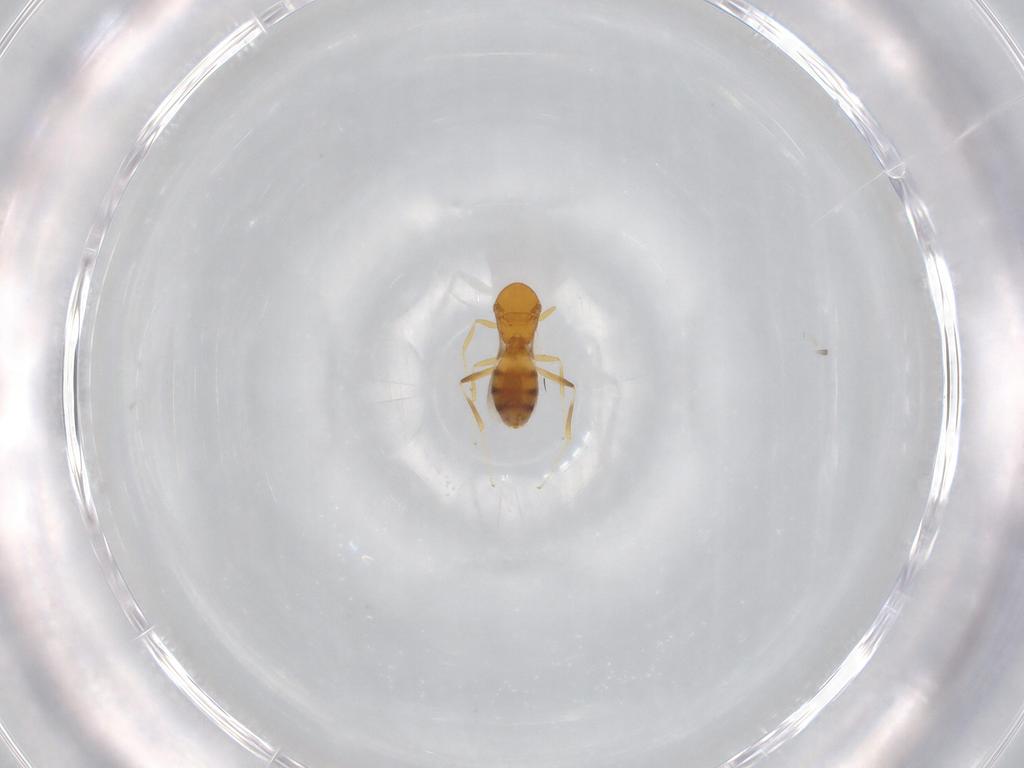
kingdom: Animalia
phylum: Arthropoda
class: Insecta
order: Hymenoptera
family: Scelionidae
